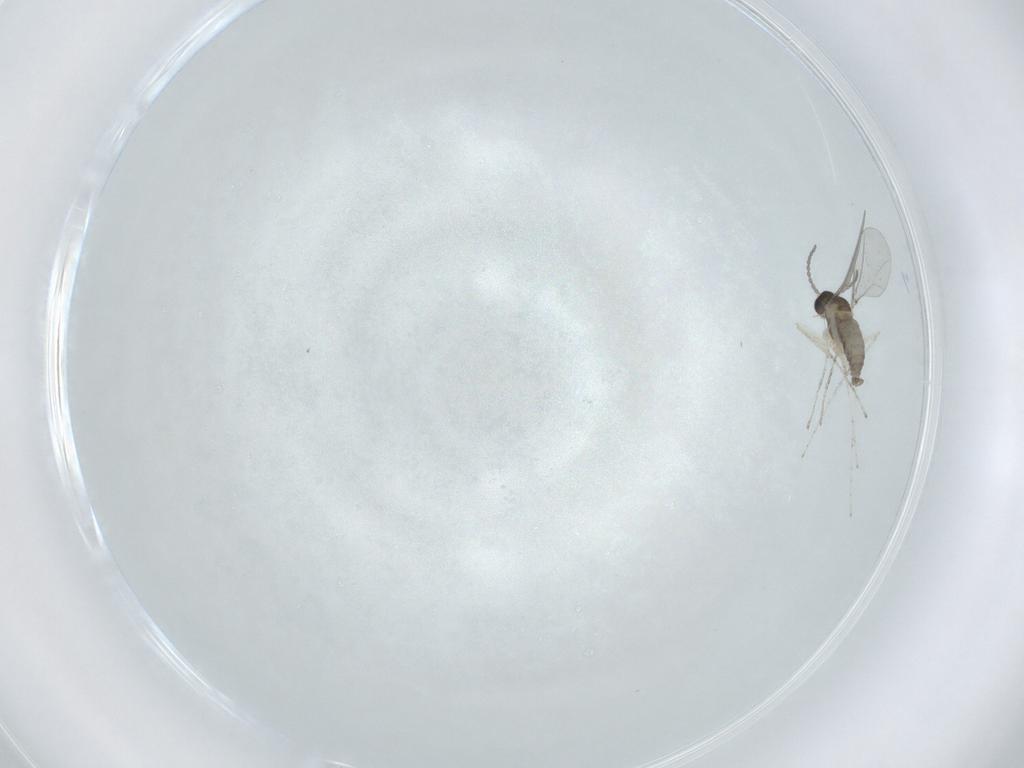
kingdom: Animalia
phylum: Arthropoda
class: Insecta
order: Diptera
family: Cecidomyiidae
